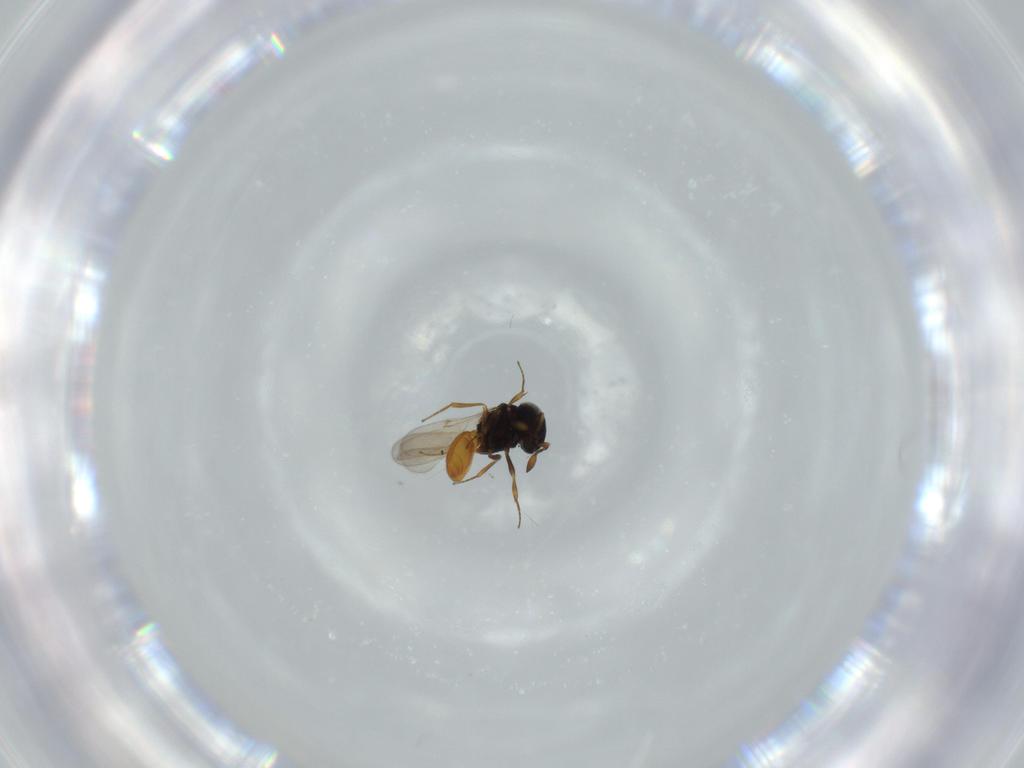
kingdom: Animalia
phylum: Arthropoda
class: Insecta
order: Hymenoptera
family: Scelionidae
